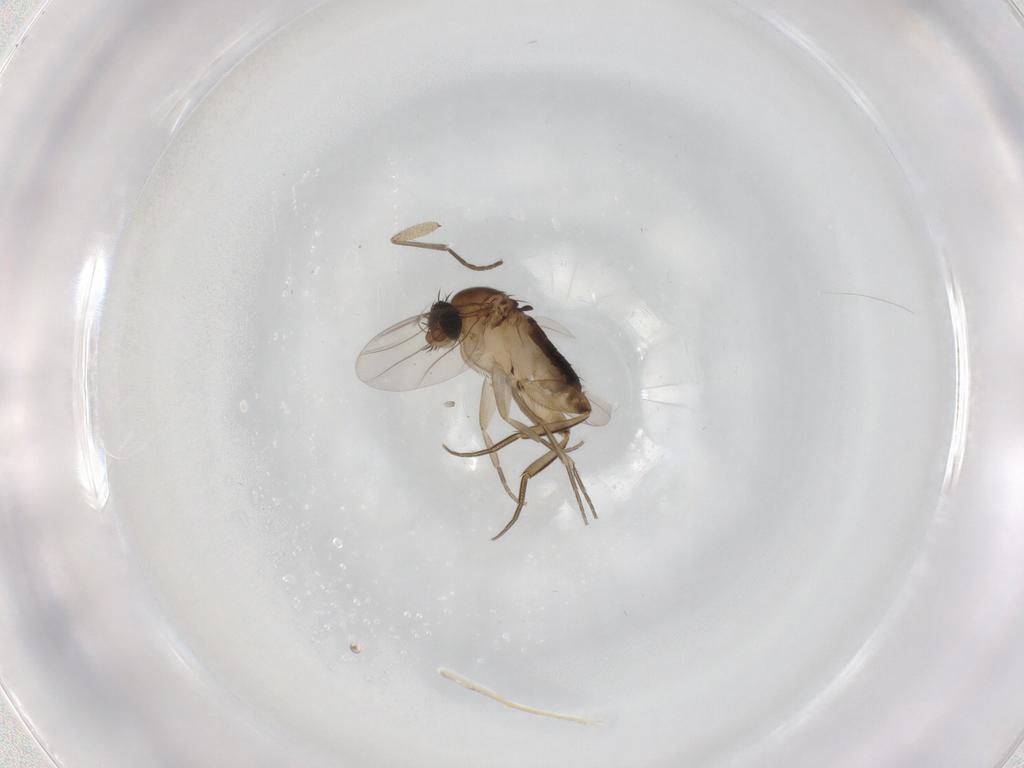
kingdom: Animalia
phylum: Arthropoda
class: Insecta
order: Diptera
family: Phoridae
